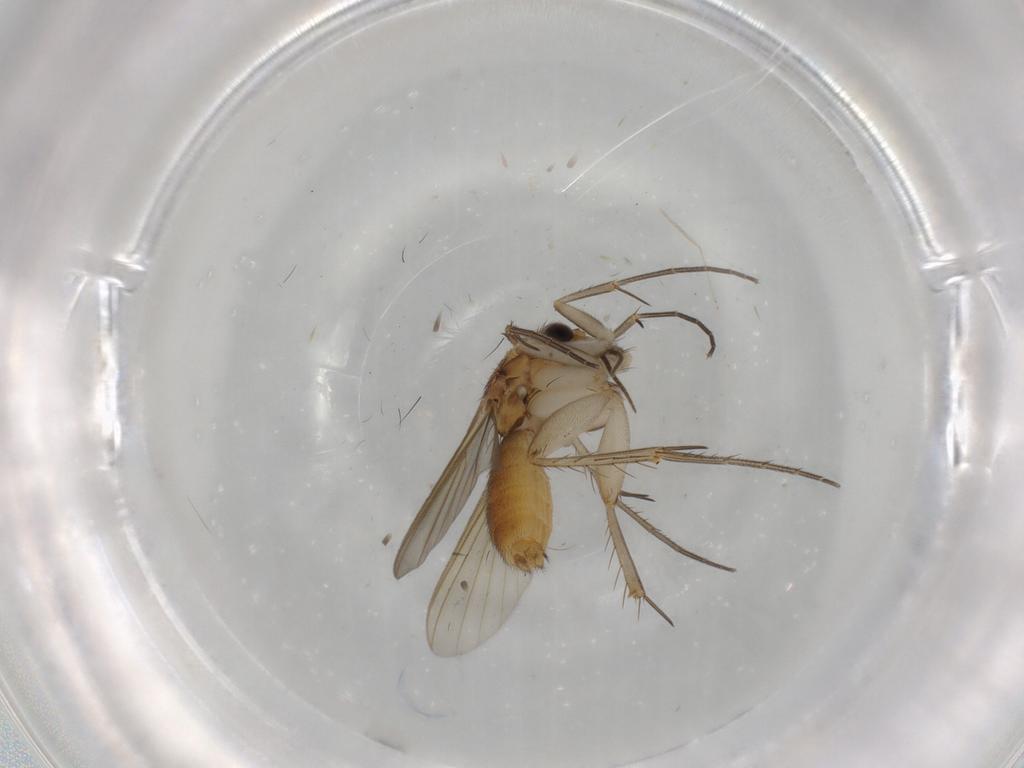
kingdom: Animalia
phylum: Arthropoda
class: Insecta
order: Diptera
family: Mycetophilidae
